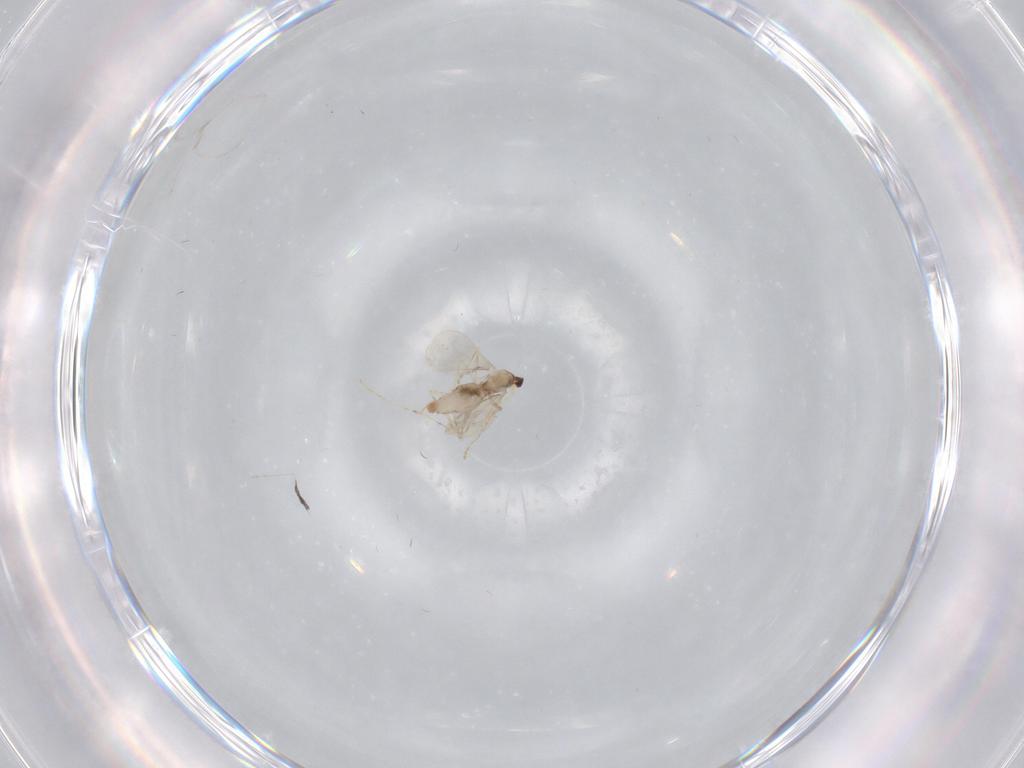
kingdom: Animalia
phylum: Arthropoda
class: Insecta
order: Diptera
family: Cecidomyiidae
